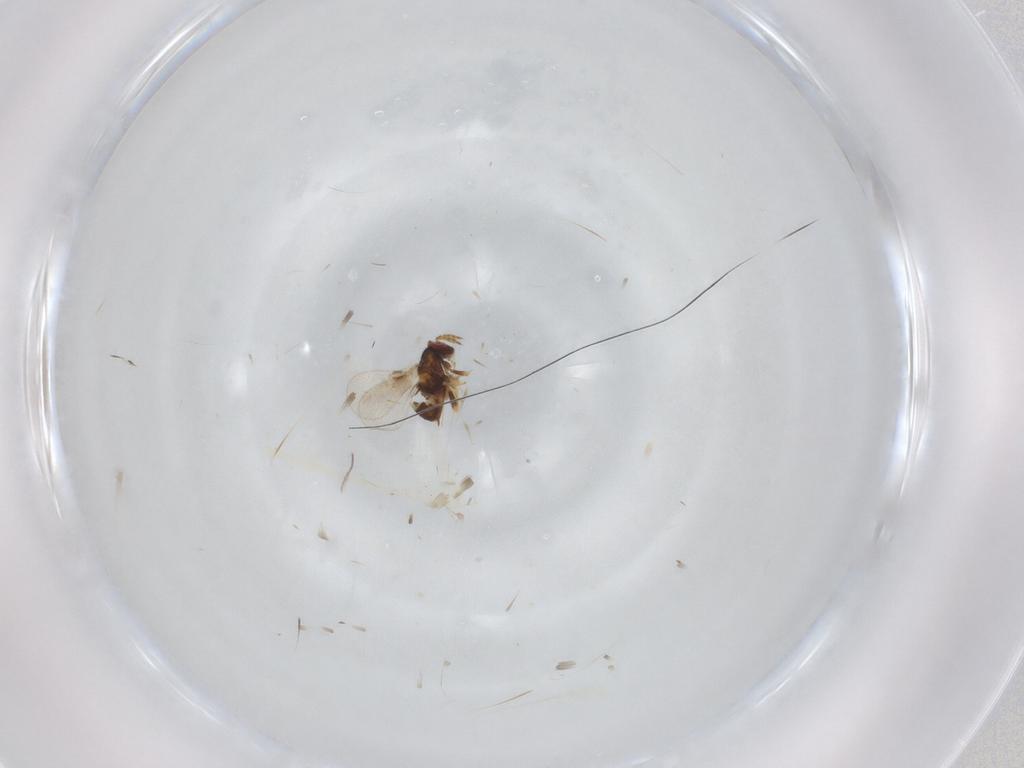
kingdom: Animalia
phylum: Arthropoda
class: Insecta
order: Hymenoptera
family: Trichogrammatidae
